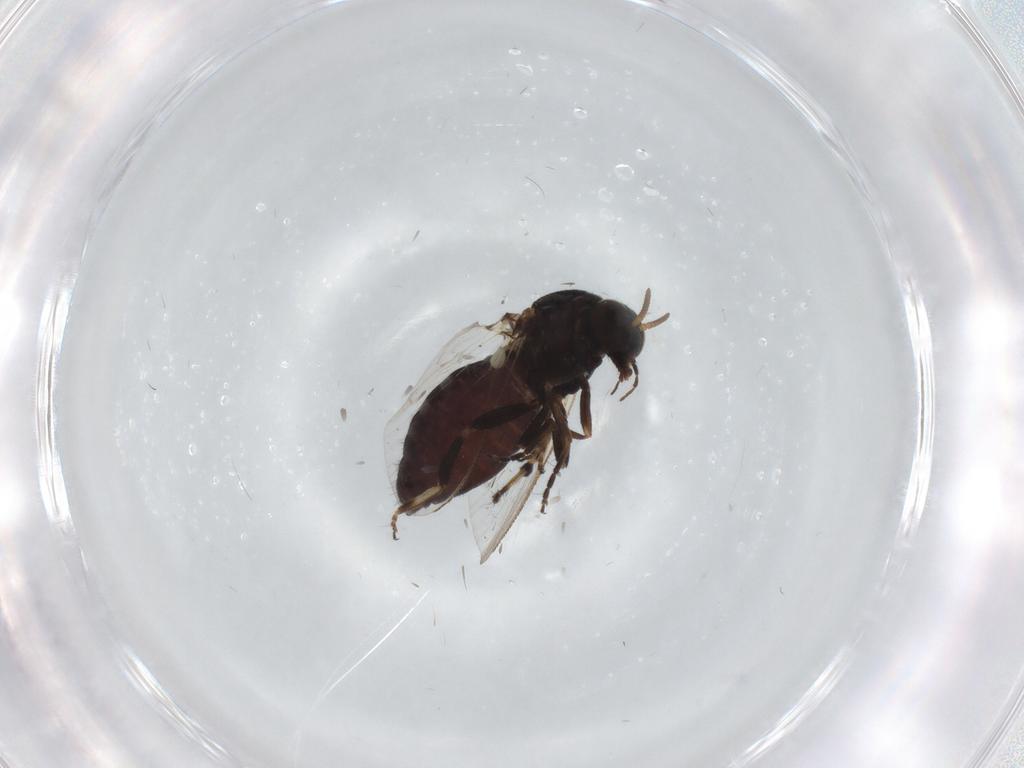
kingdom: Animalia
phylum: Arthropoda
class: Insecta
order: Diptera
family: Simuliidae
